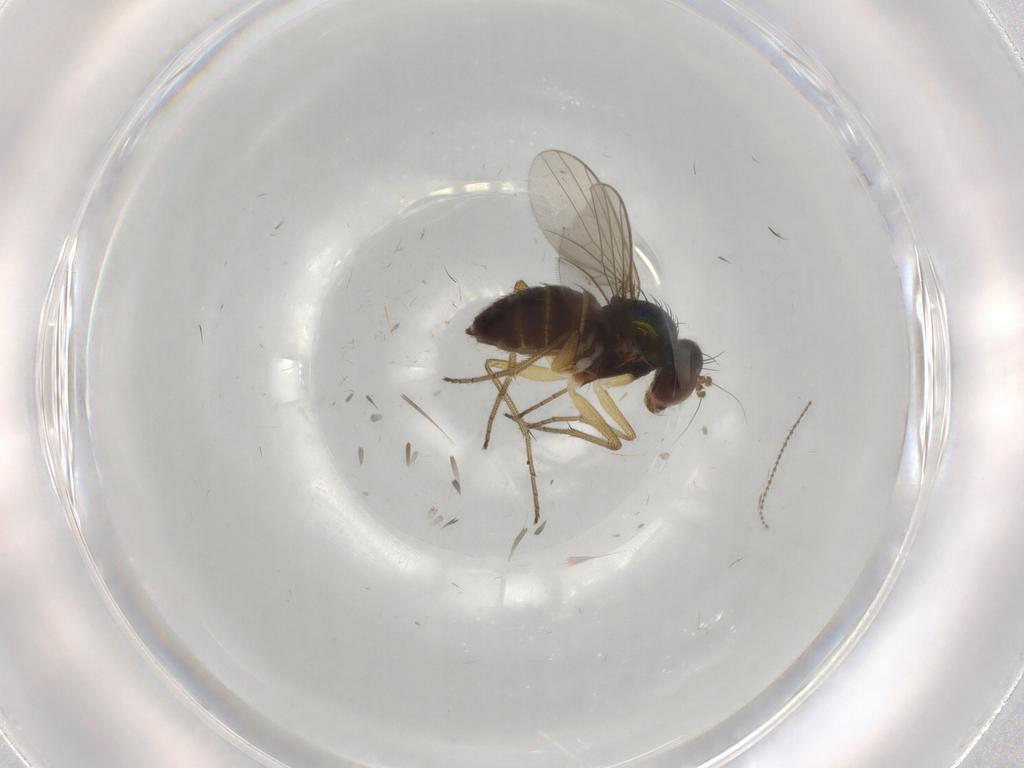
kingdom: Animalia
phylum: Arthropoda
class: Insecta
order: Diptera
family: Dolichopodidae
